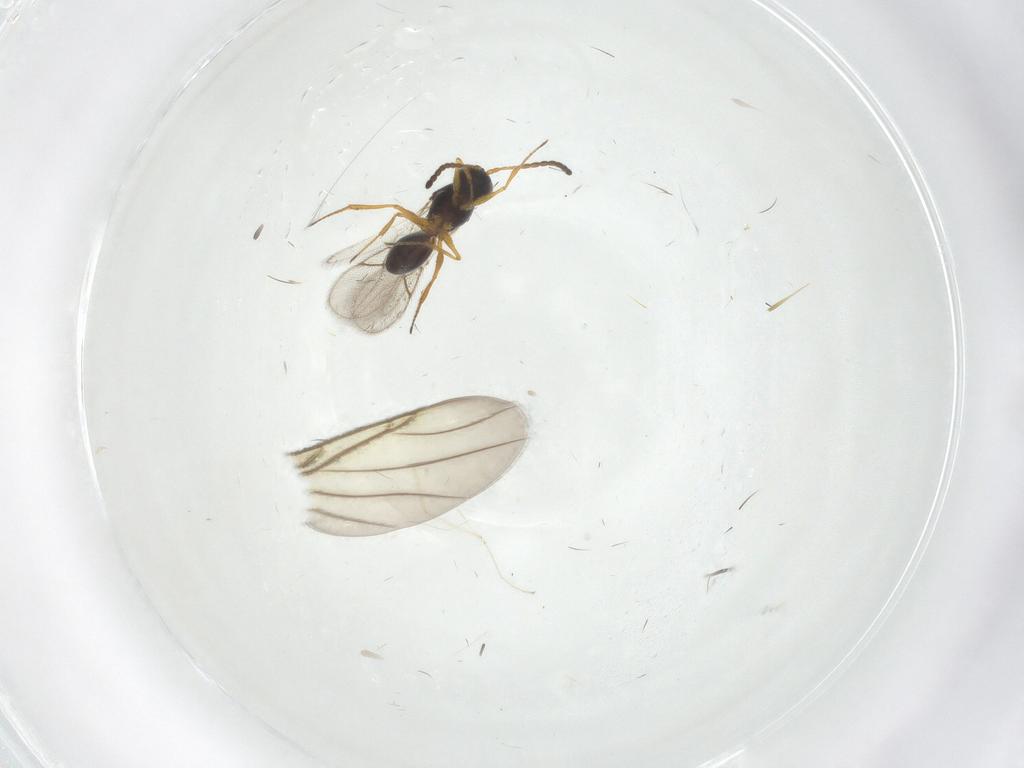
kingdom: Animalia
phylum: Arthropoda
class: Insecta
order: Hymenoptera
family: Figitidae
